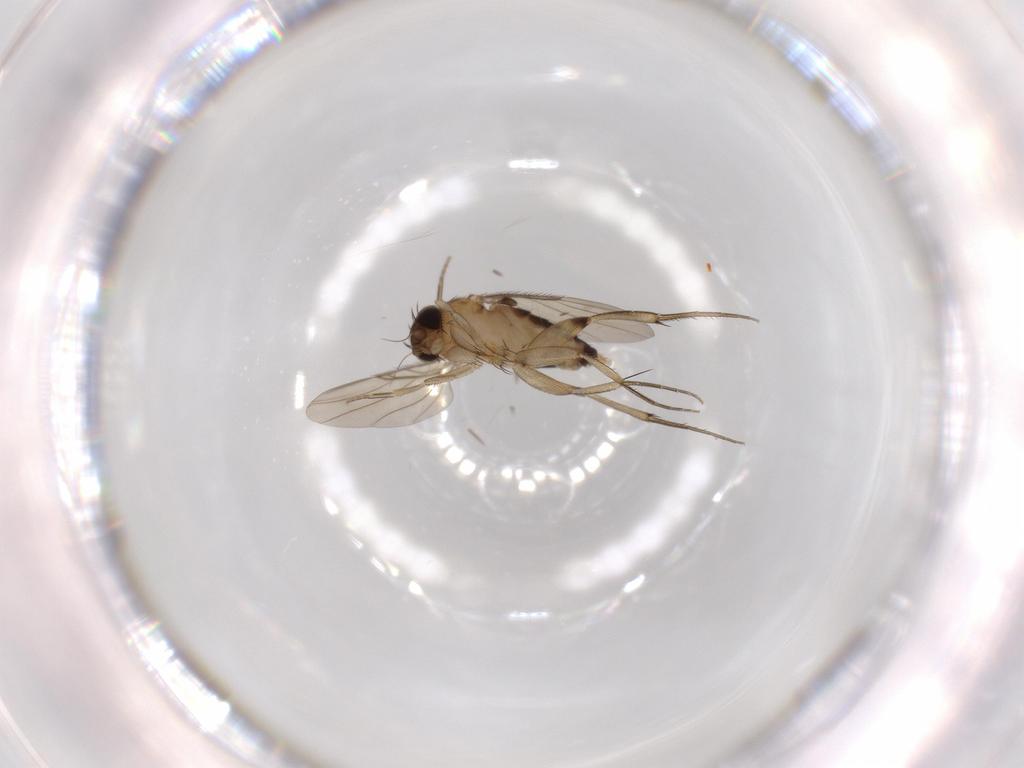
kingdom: Animalia
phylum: Arthropoda
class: Insecta
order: Diptera
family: Phoridae
